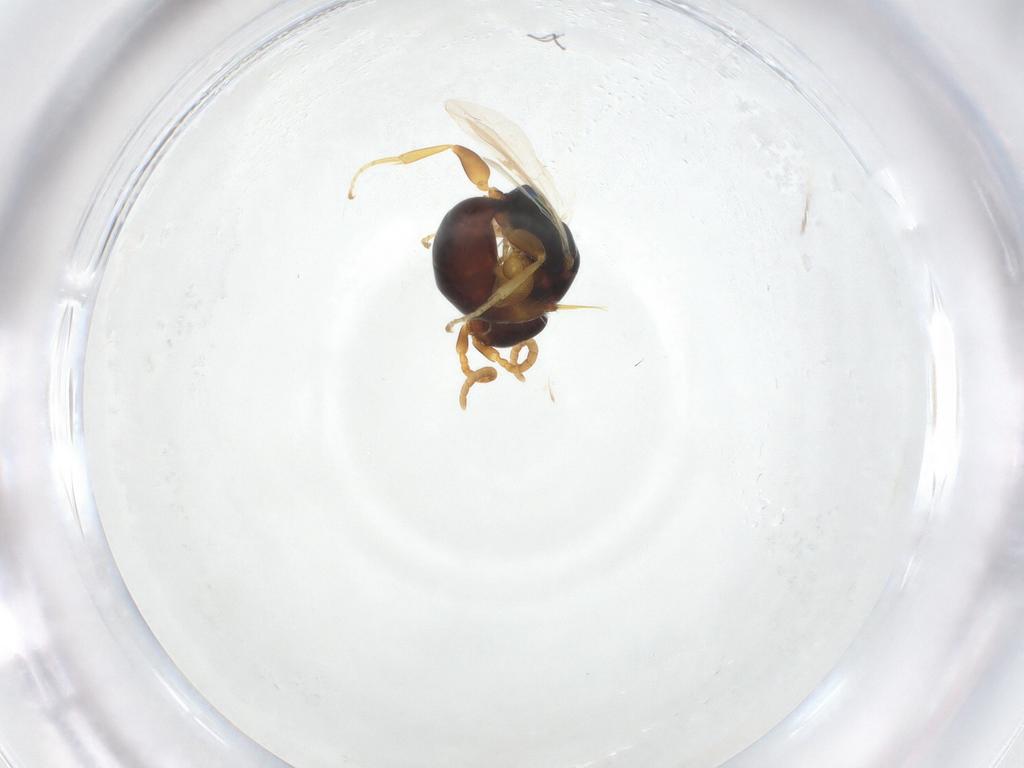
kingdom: Animalia
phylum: Arthropoda
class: Insecta
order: Hymenoptera
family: Bethylidae
